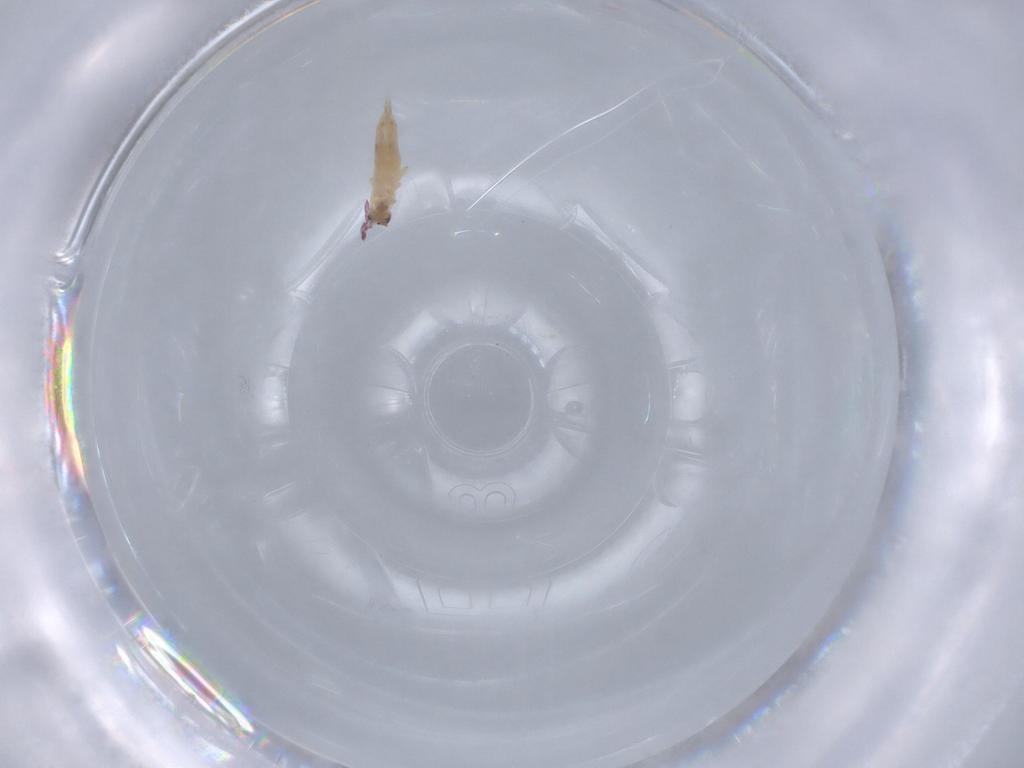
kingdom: Animalia
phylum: Arthropoda
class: Collembola
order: Entomobryomorpha
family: Entomobryidae
